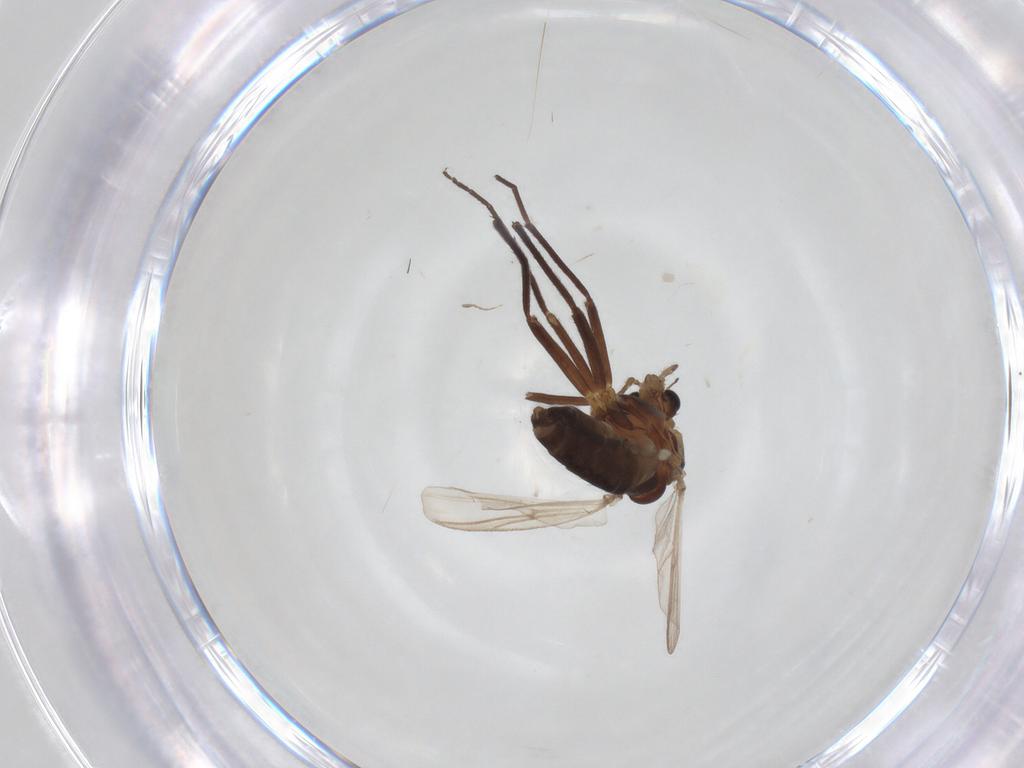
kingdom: Animalia
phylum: Arthropoda
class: Insecta
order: Diptera
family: Chironomidae
